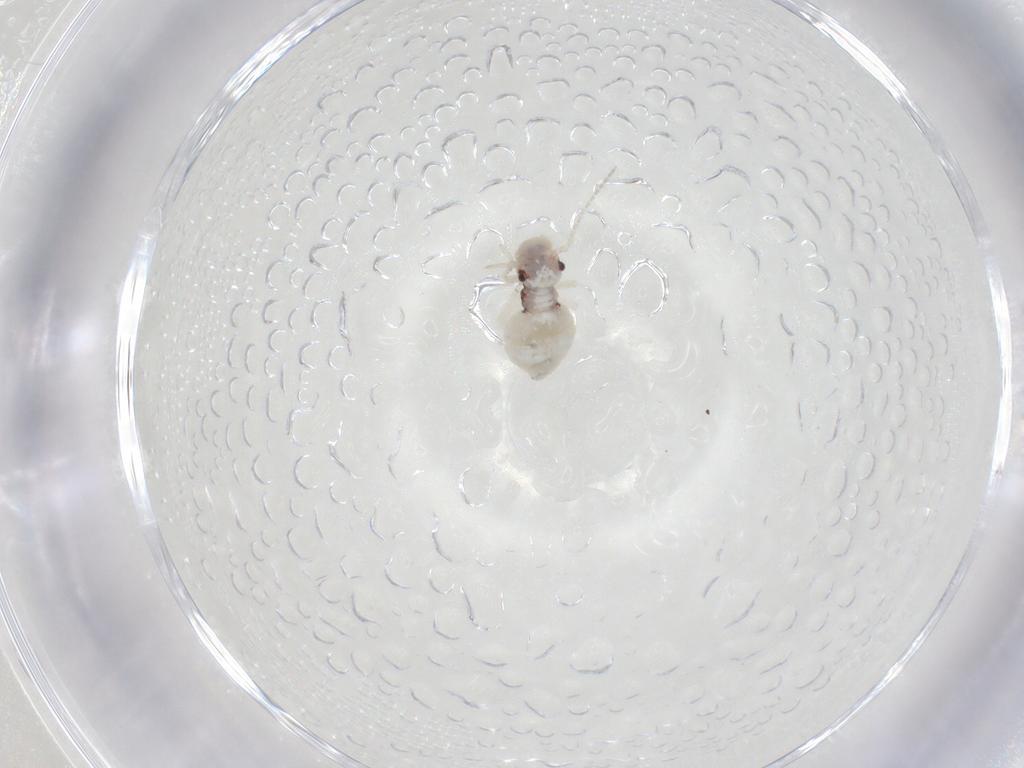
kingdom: Animalia
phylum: Arthropoda
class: Insecta
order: Psocodea
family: Amphipsocidae
